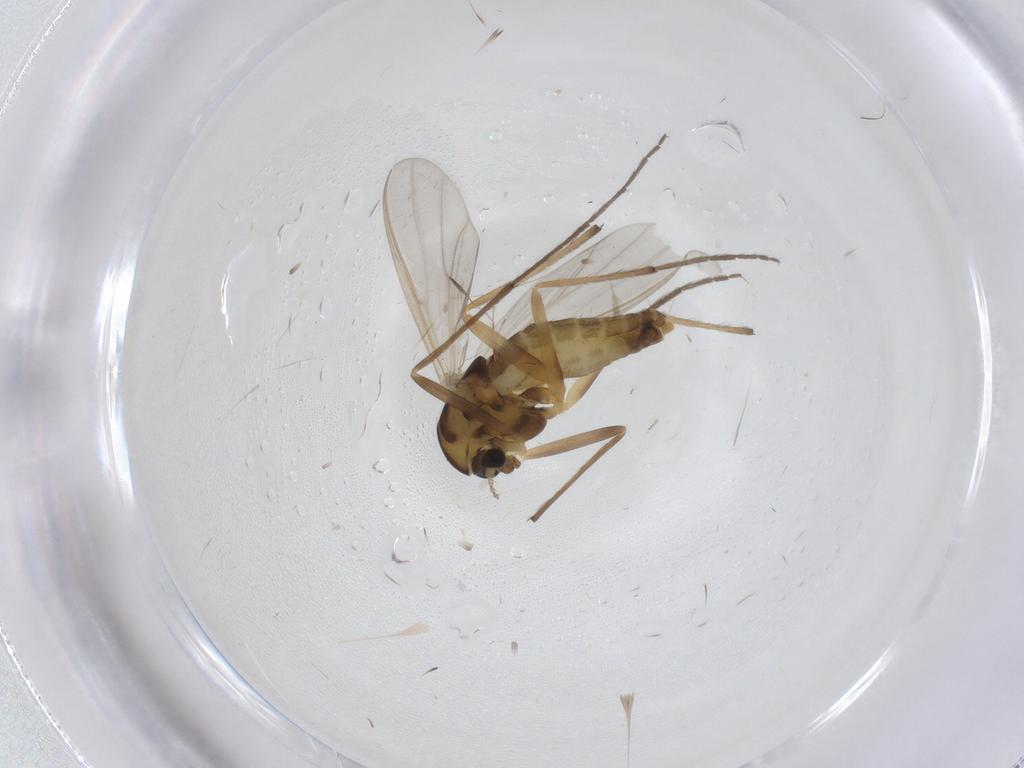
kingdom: Animalia
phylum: Arthropoda
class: Insecta
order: Diptera
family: Chironomidae
